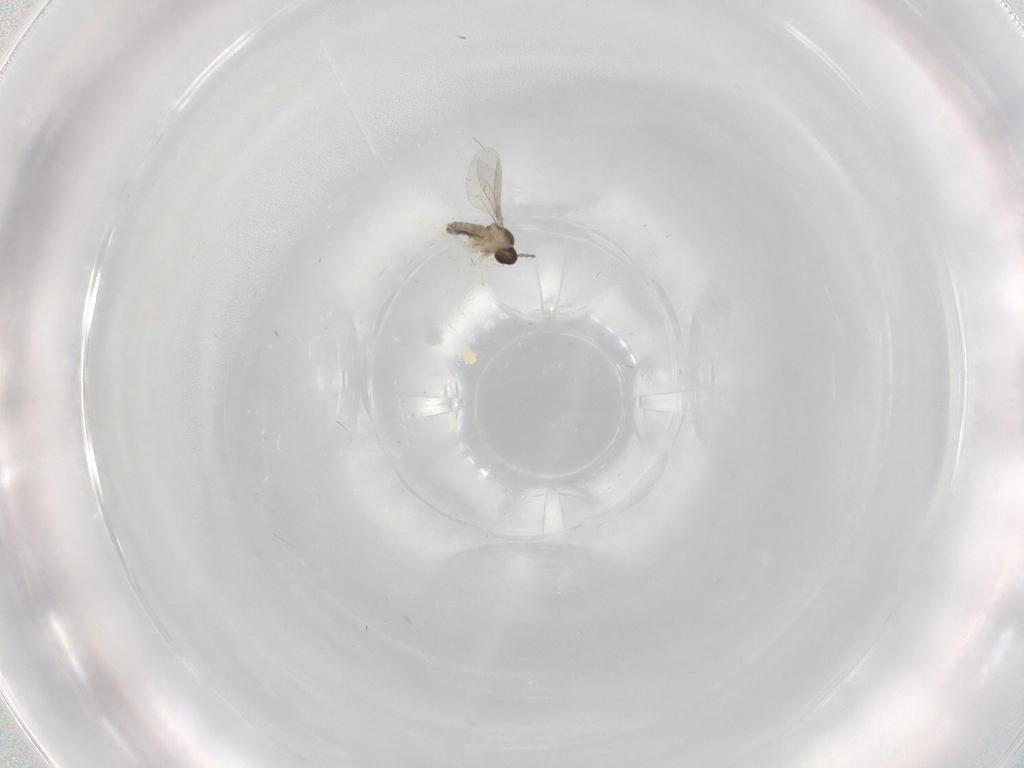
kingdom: Animalia
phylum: Arthropoda
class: Insecta
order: Diptera
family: Cecidomyiidae
